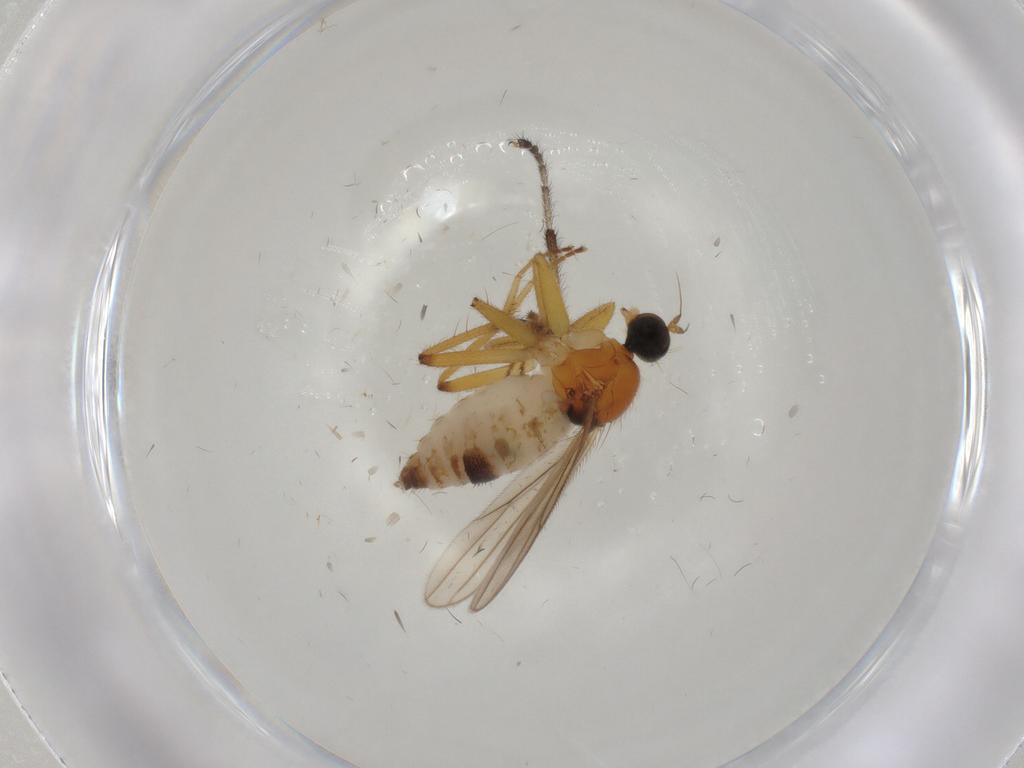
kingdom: Animalia
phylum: Arthropoda
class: Insecta
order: Diptera
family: Hybotidae
